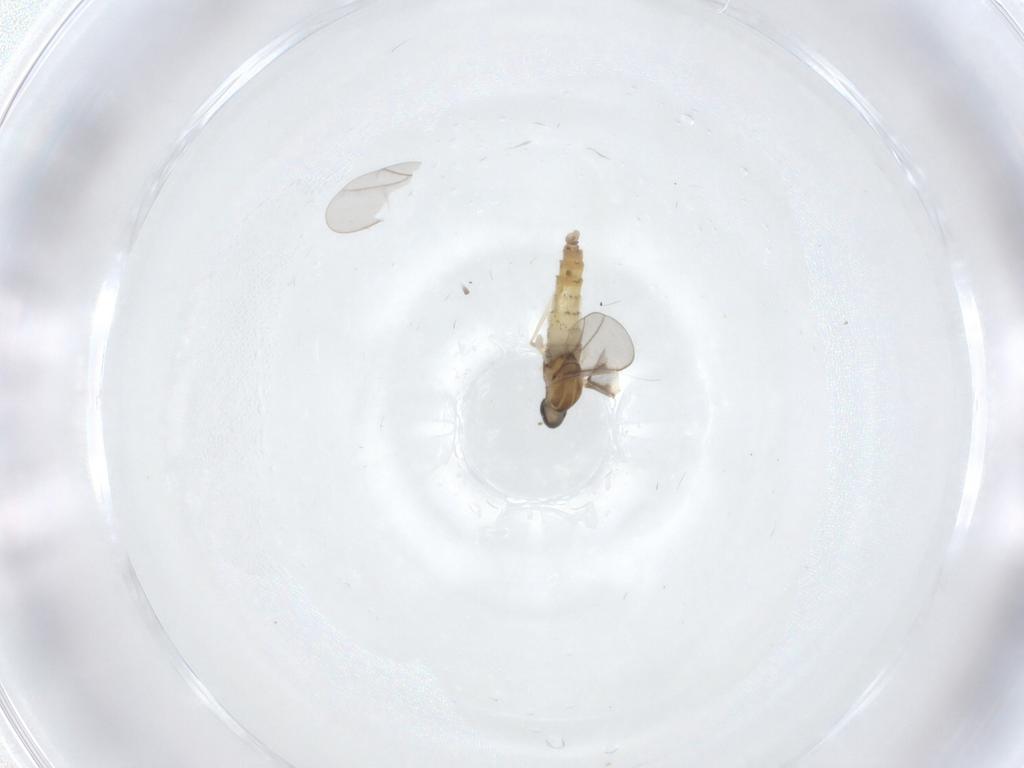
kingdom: Animalia
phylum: Arthropoda
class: Insecta
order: Diptera
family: Cecidomyiidae
